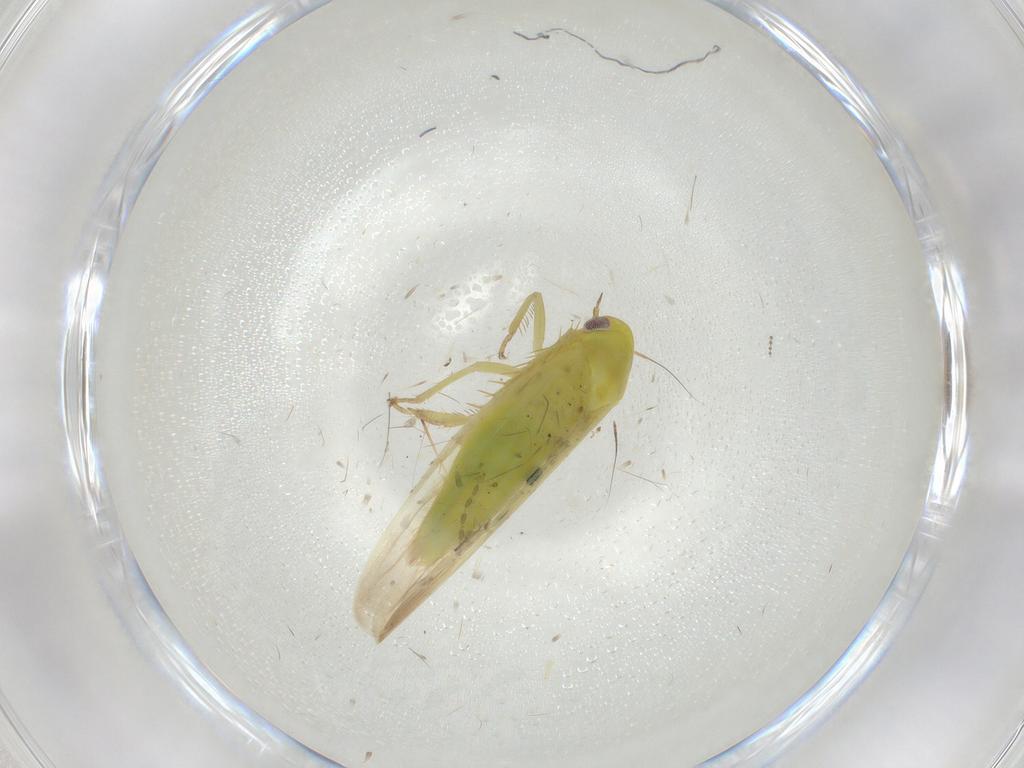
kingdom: Animalia
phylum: Arthropoda
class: Insecta
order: Hemiptera
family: Cicadellidae
